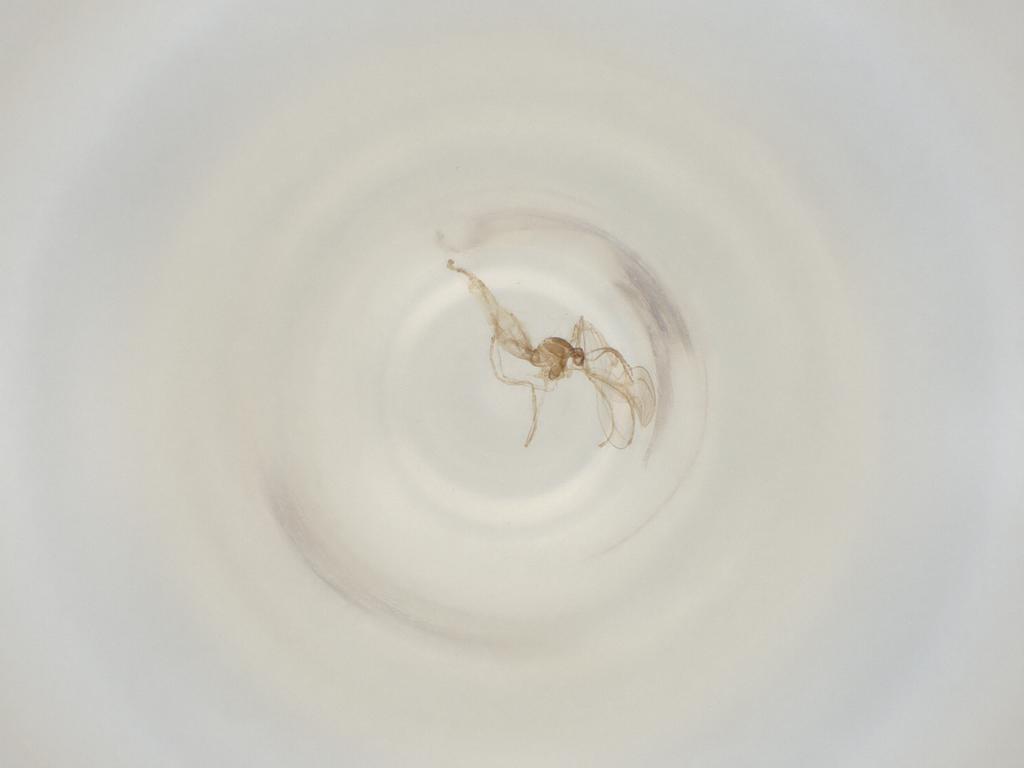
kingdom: Animalia
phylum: Arthropoda
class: Insecta
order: Diptera
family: Cecidomyiidae
